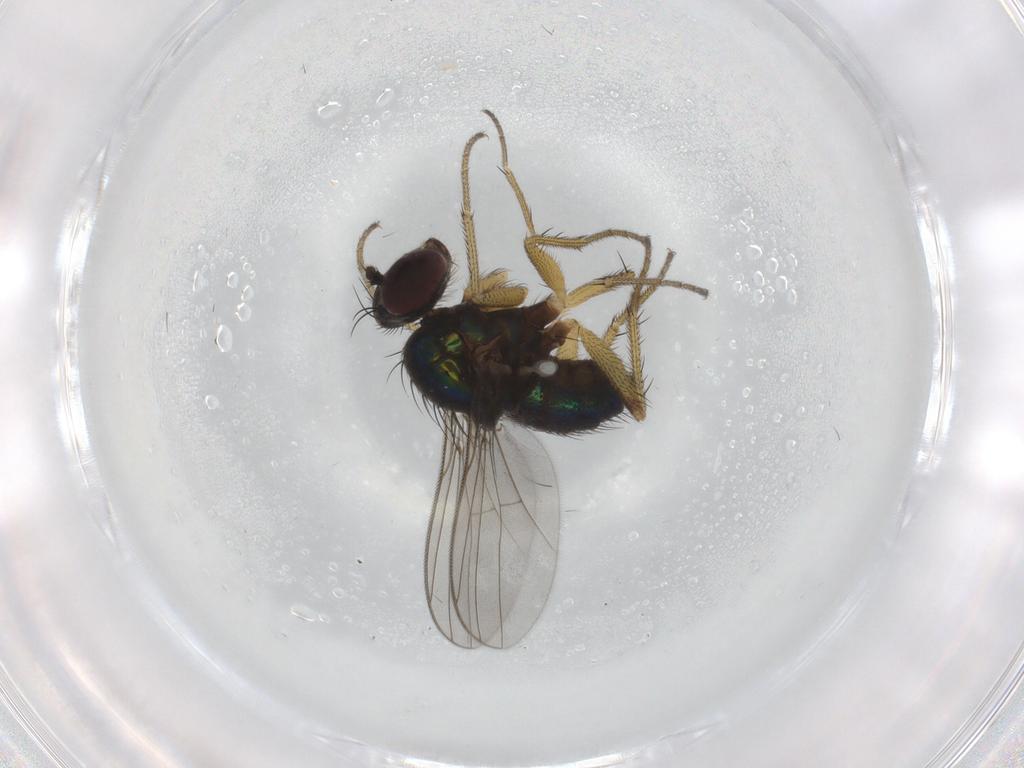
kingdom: Animalia
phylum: Arthropoda
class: Insecta
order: Diptera
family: Dolichopodidae
